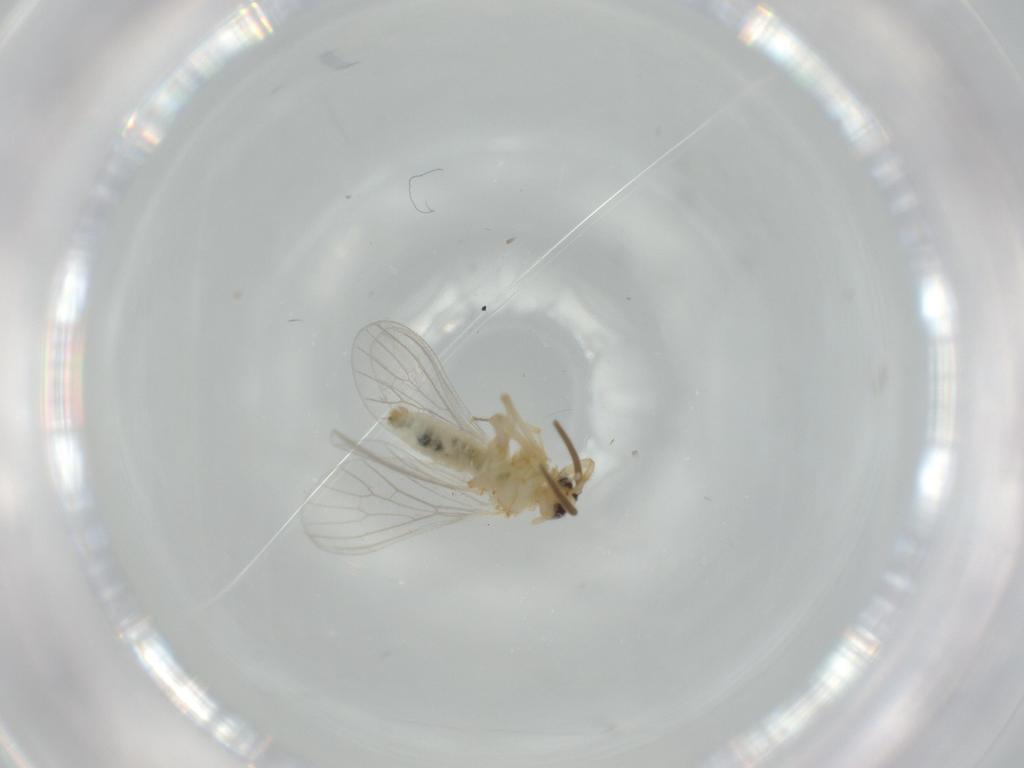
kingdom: Animalia
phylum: Arthropoda
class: Insecta
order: Neuroptera
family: Coniopterygidae
